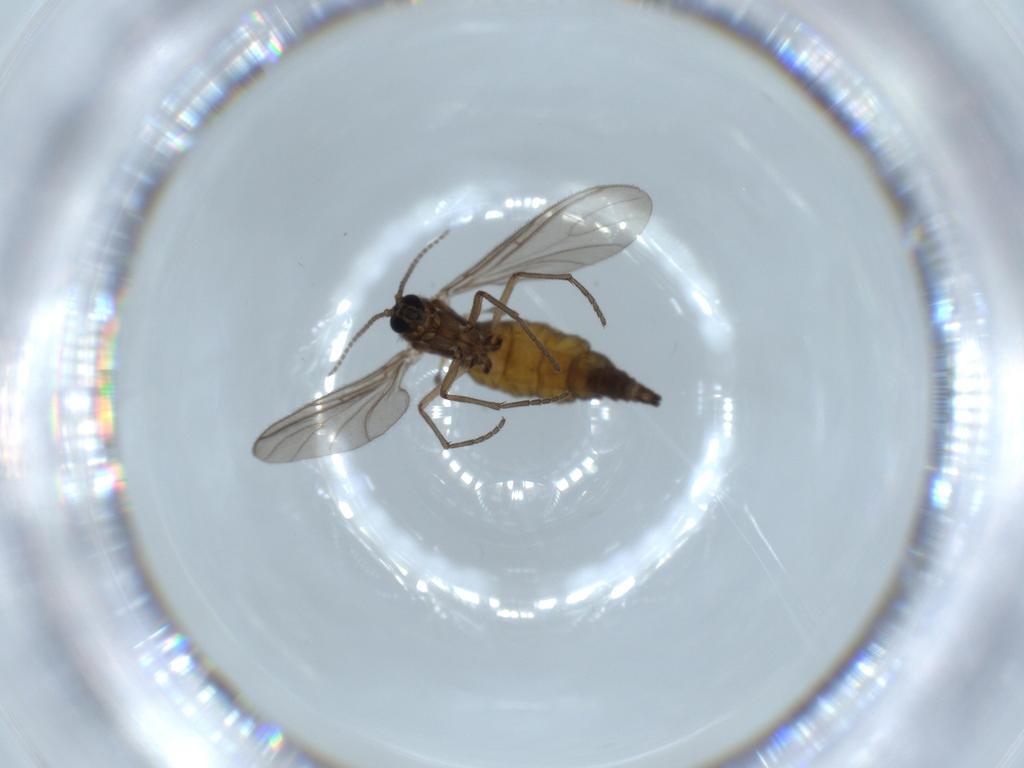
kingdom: Animalia
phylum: Arthropoda
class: Insecta
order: Diptera
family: Sciaridae
